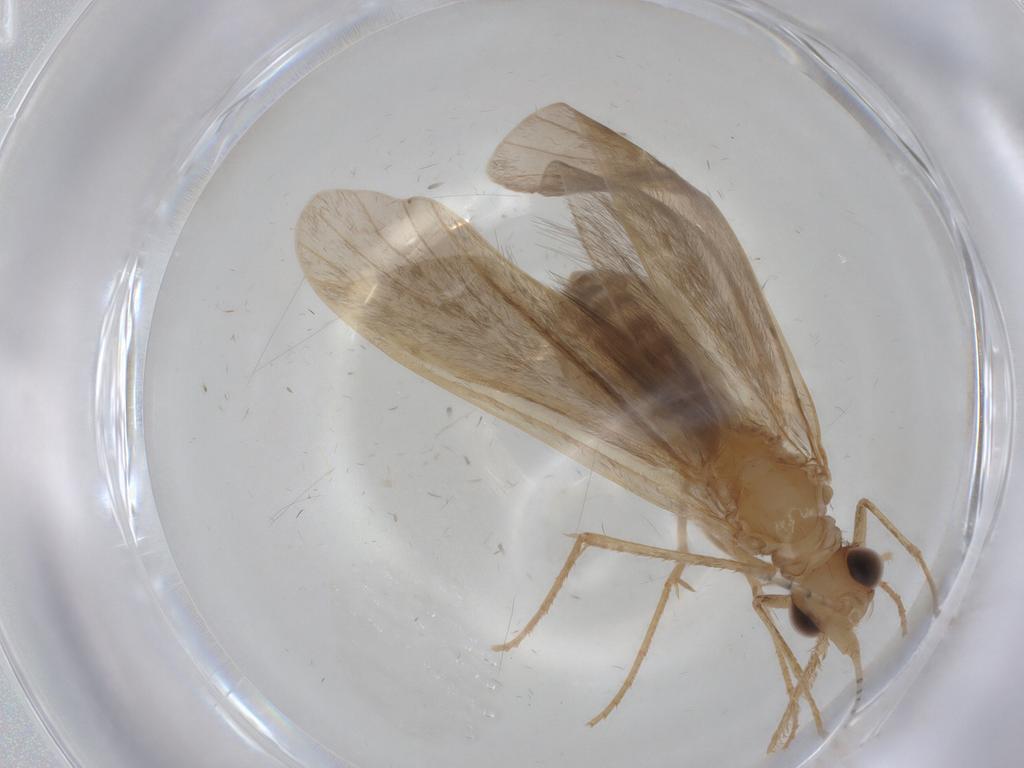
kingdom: Animalia
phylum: Arthropoda
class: Insecta
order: Trichoptera
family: Leptoceridae
